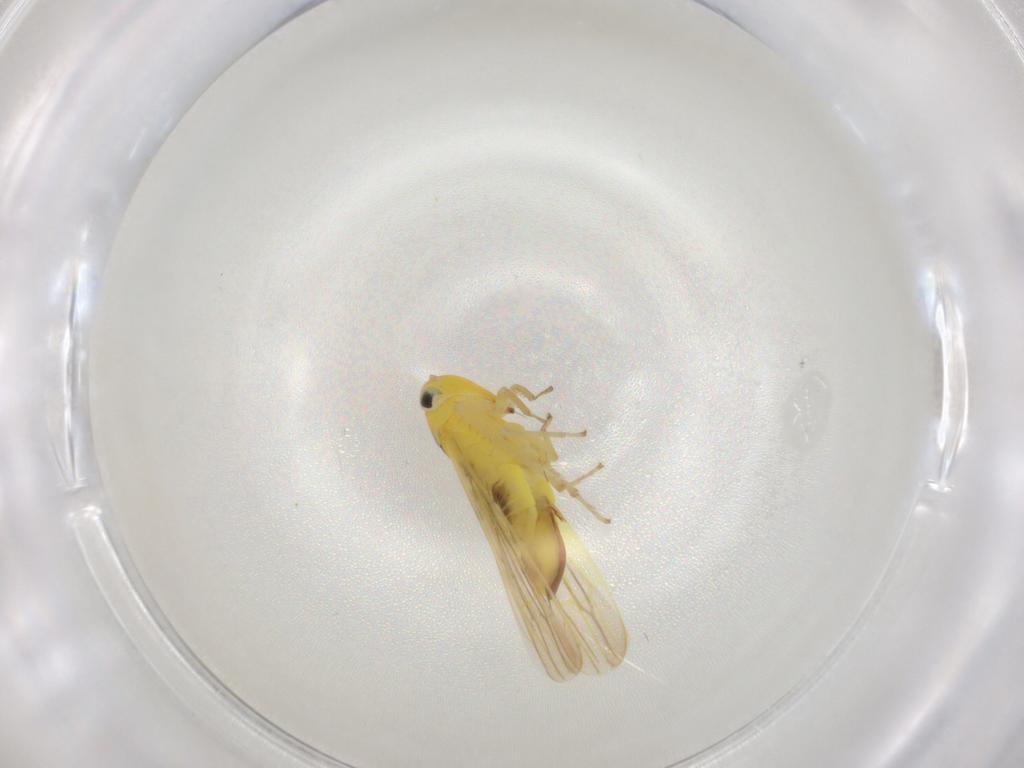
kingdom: Animalia
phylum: Arthropoda
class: Insecta
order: Hemiptera
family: Cicadellidae
